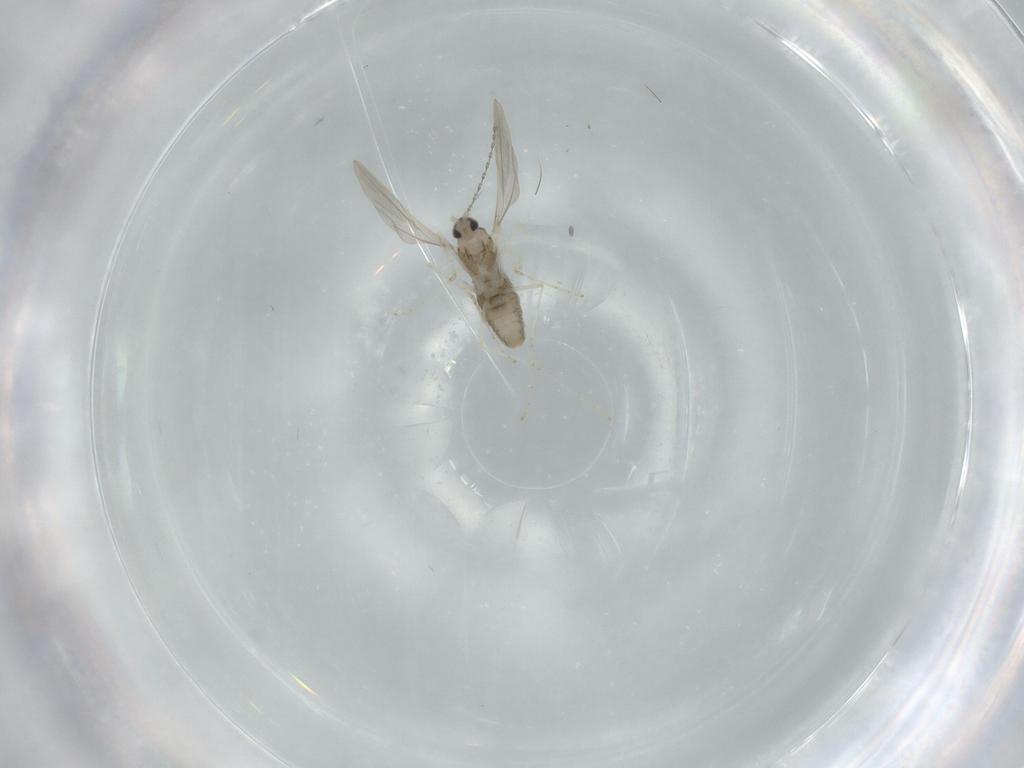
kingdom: Animalia
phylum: Arthropoda
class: Insecta
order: Diptera
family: Cecidomyiidae
